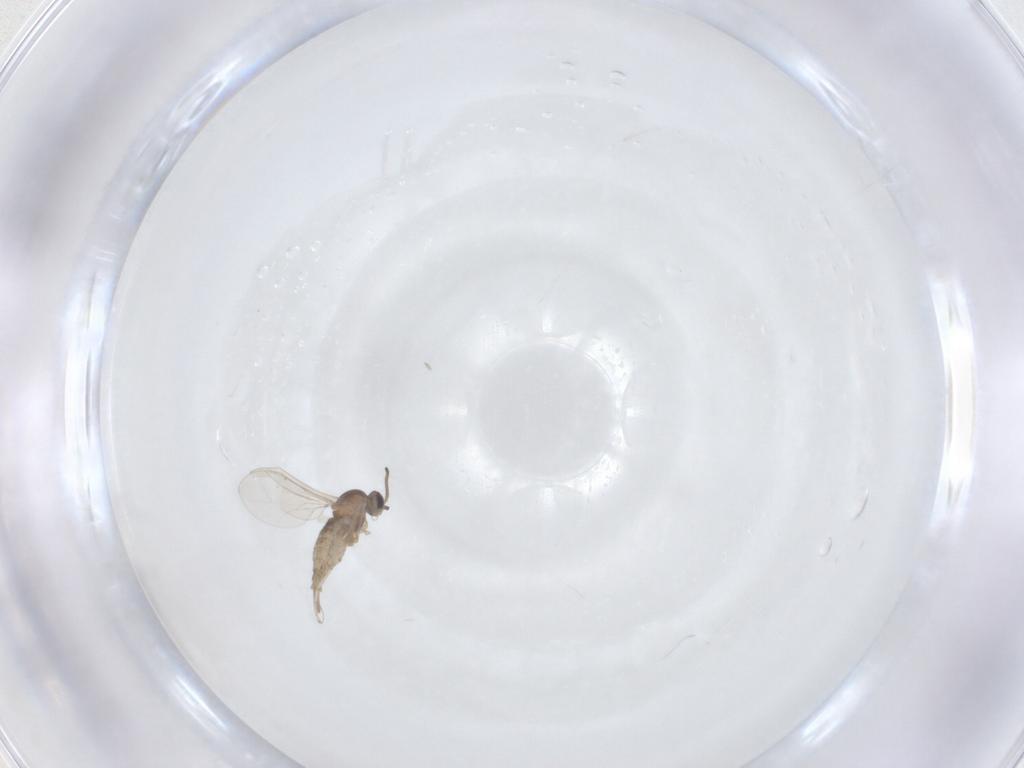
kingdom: Animalia
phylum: Arthropoda
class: Insecta
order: Diptera
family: Cecidomyiidae
